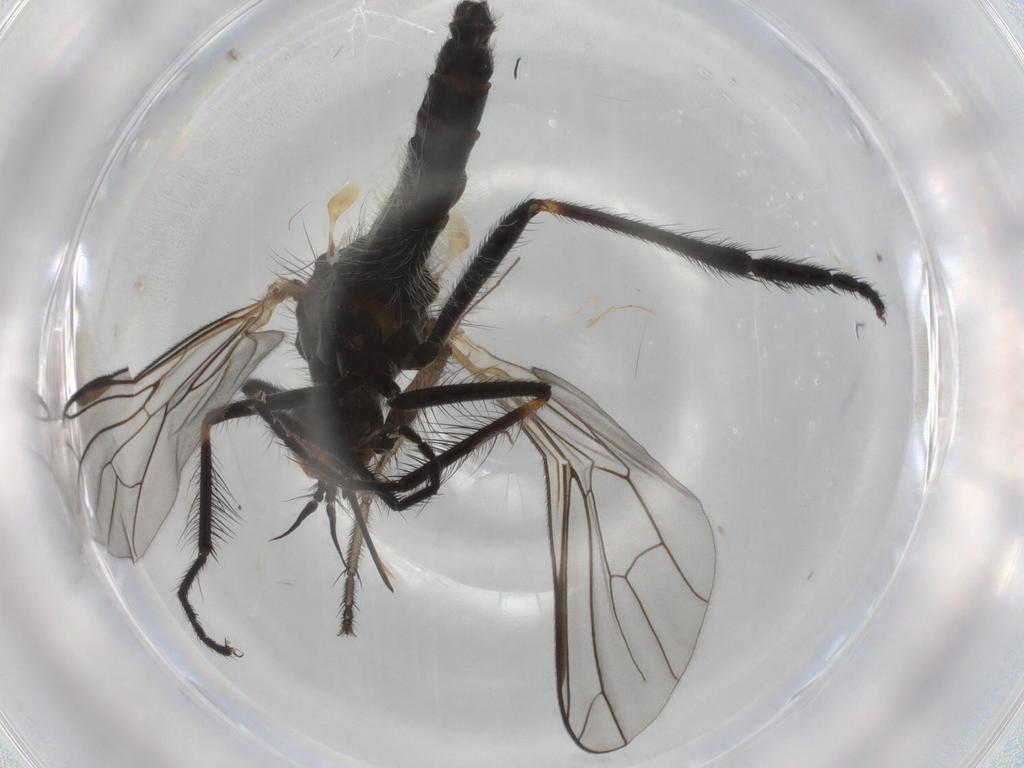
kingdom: Animalia
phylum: Arthropoda
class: Insecta
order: Diptera
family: Empididae
